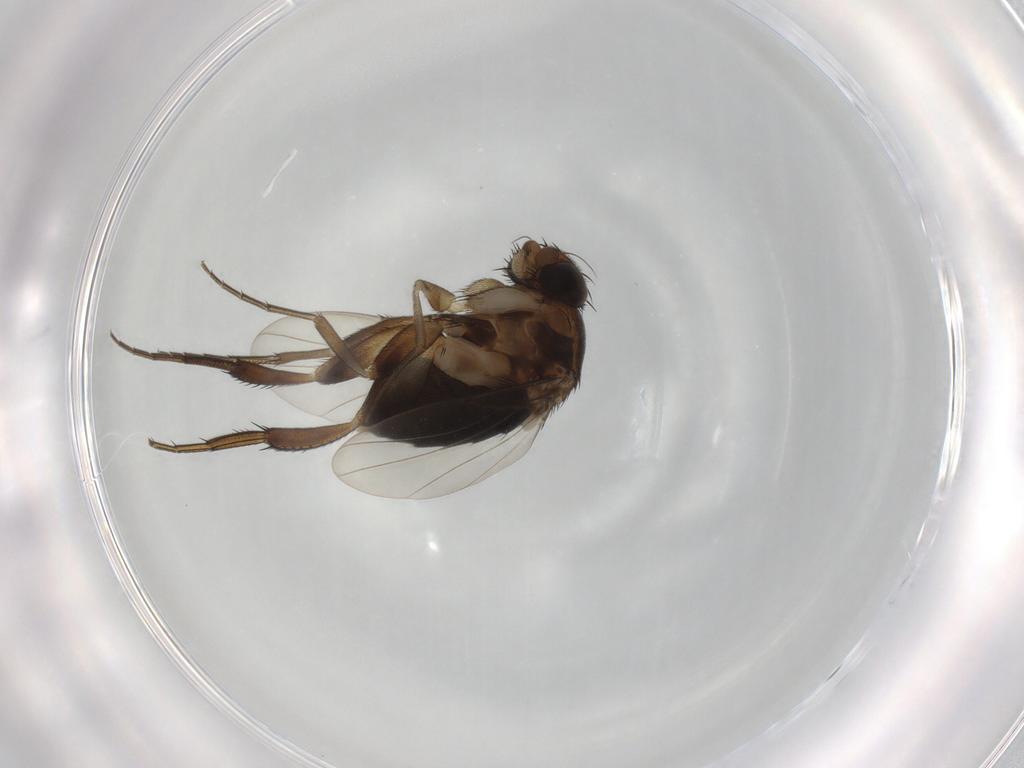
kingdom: Animalia
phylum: Arthropoda
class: Insecta
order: Diptera
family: Phoridae
